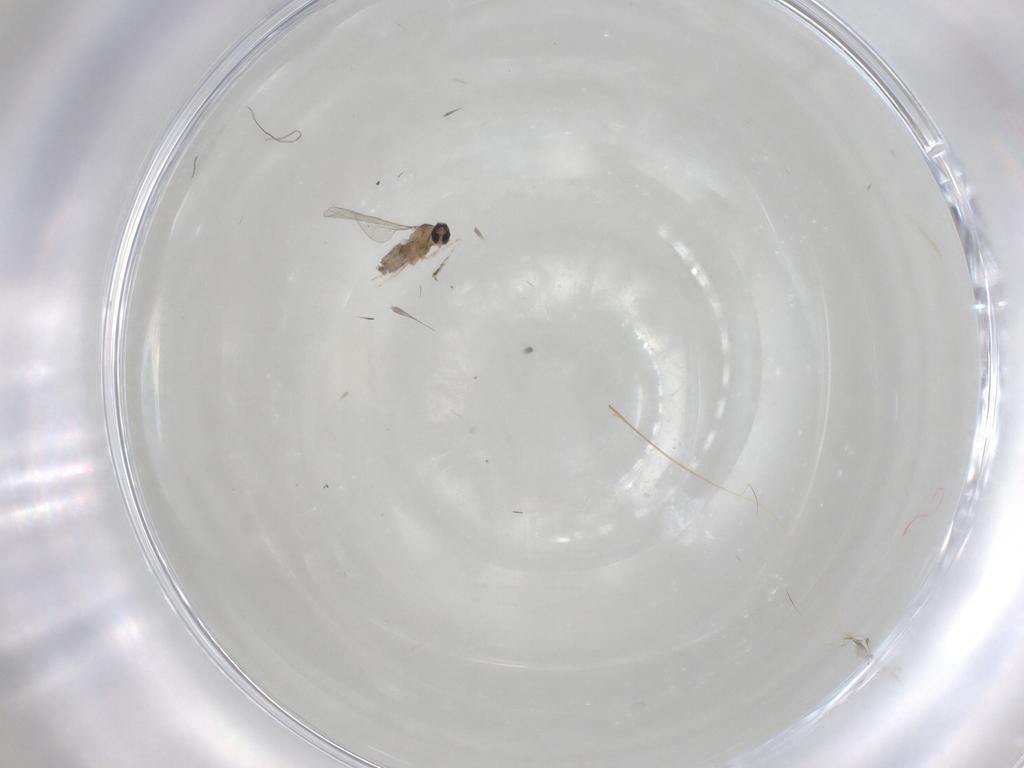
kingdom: Animalia
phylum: Arthropoda
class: Insecta
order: Diptera
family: Cecidomyiidae
